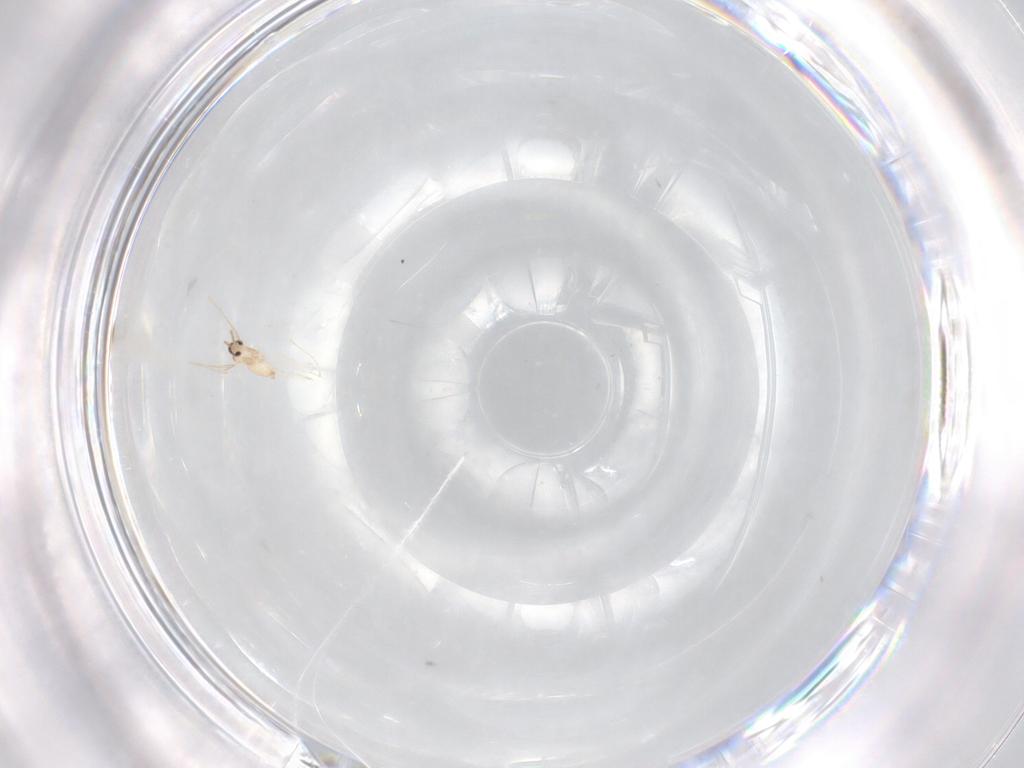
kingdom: Animalia
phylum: Arthropoda
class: Insecta
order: Diptera
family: Cecidomyiidae
